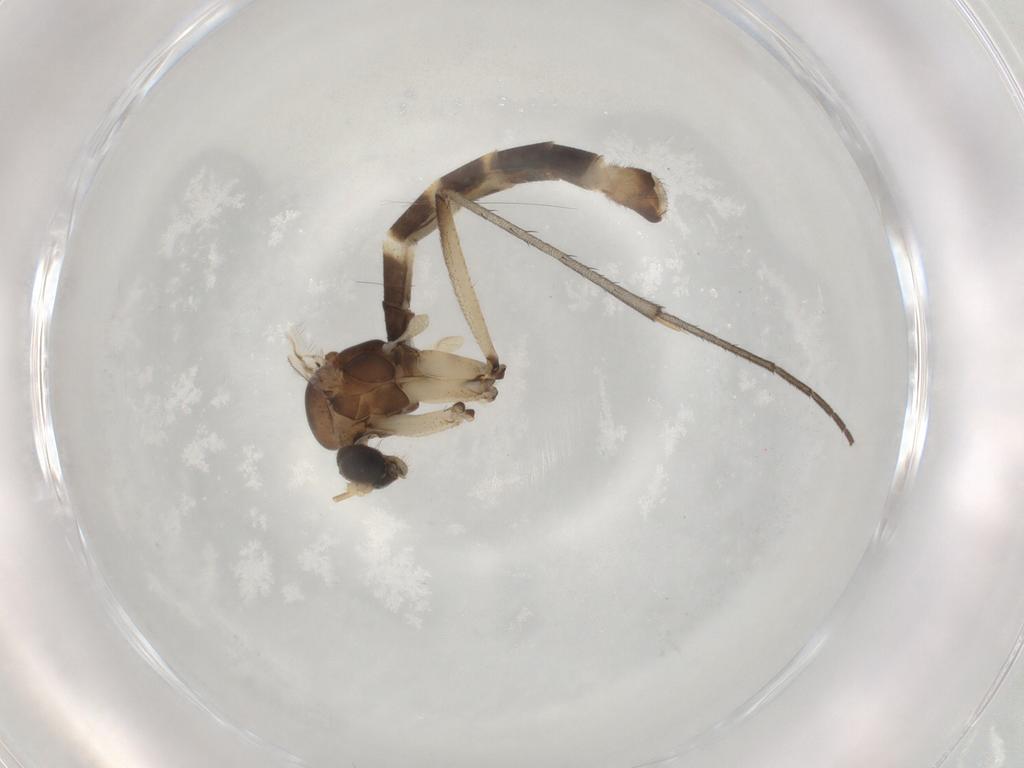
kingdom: Animalia
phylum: Arthropoda
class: Insecta
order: Diptera
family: Mycetophilidae
